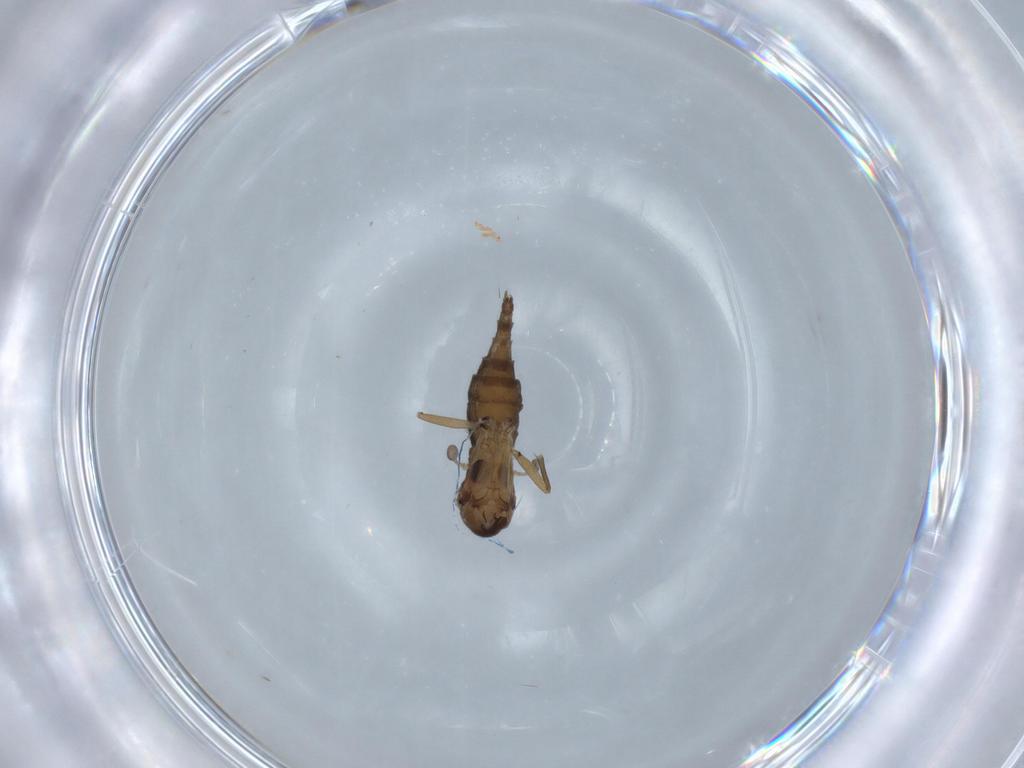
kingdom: Animalia
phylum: Arthropoda
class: Insecta
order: Diptera
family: Sciaridae
